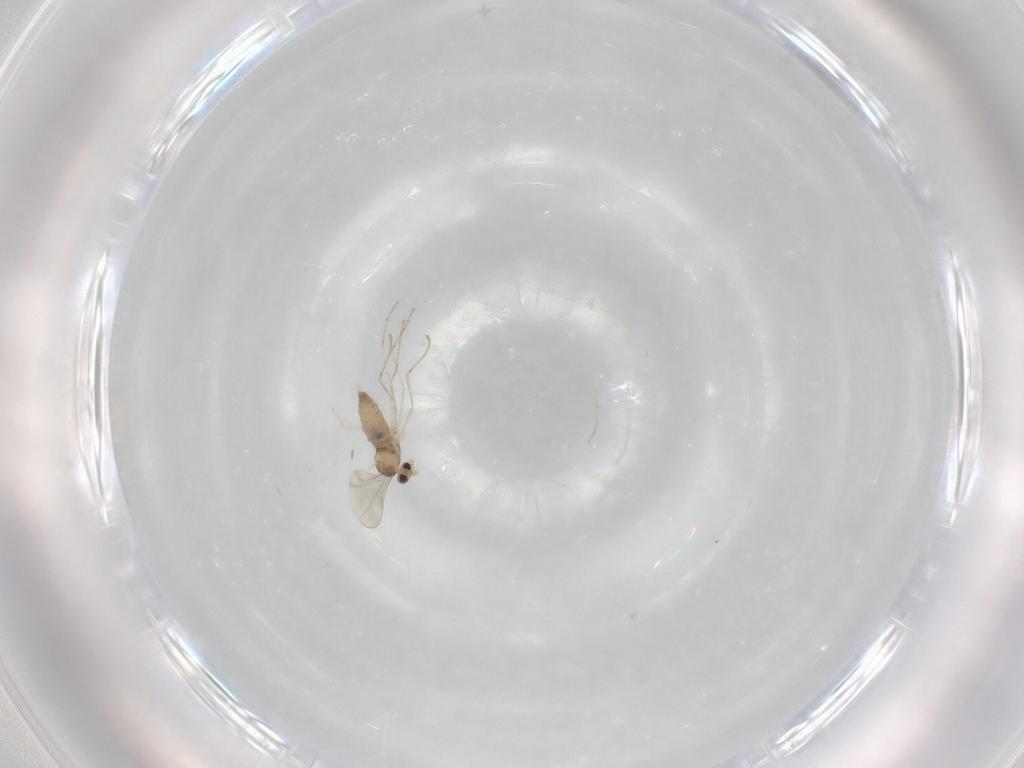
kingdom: Animalia
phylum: Arthropoda
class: Insecta
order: Diptera
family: Cecidomyiidae
